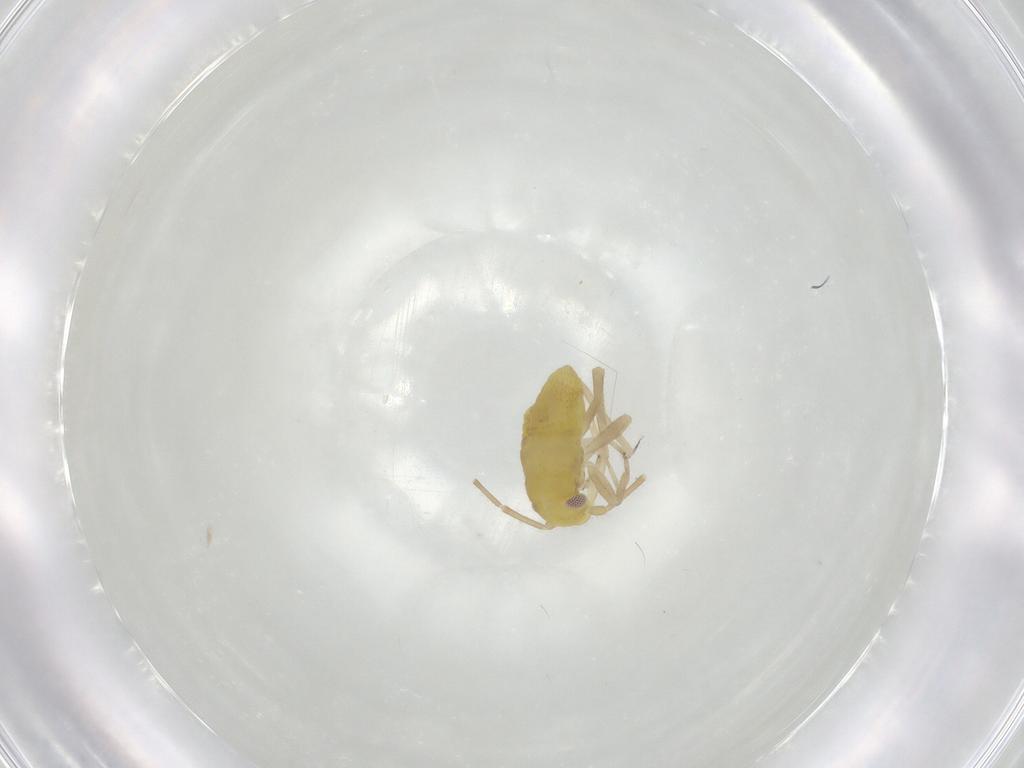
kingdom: Animalia
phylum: Arthropoda
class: Insecta
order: Hemiptera
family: Miridae
